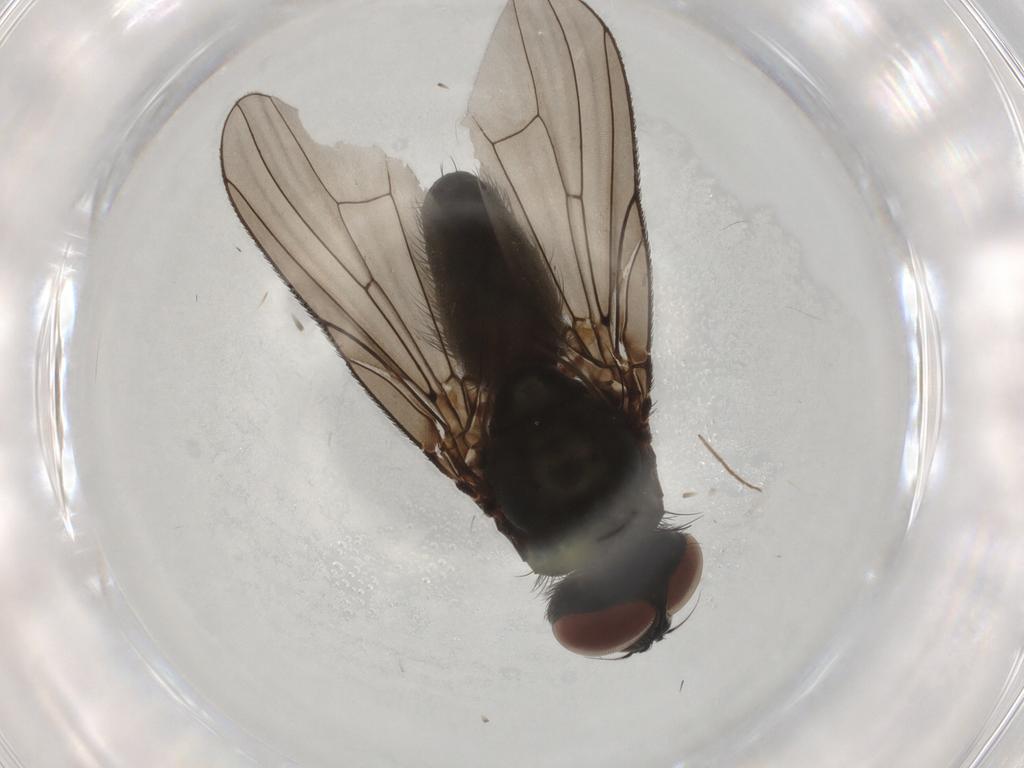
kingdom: Animalia
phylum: Arthropoda
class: Insecta
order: Diptera
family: Anthomyiidae
